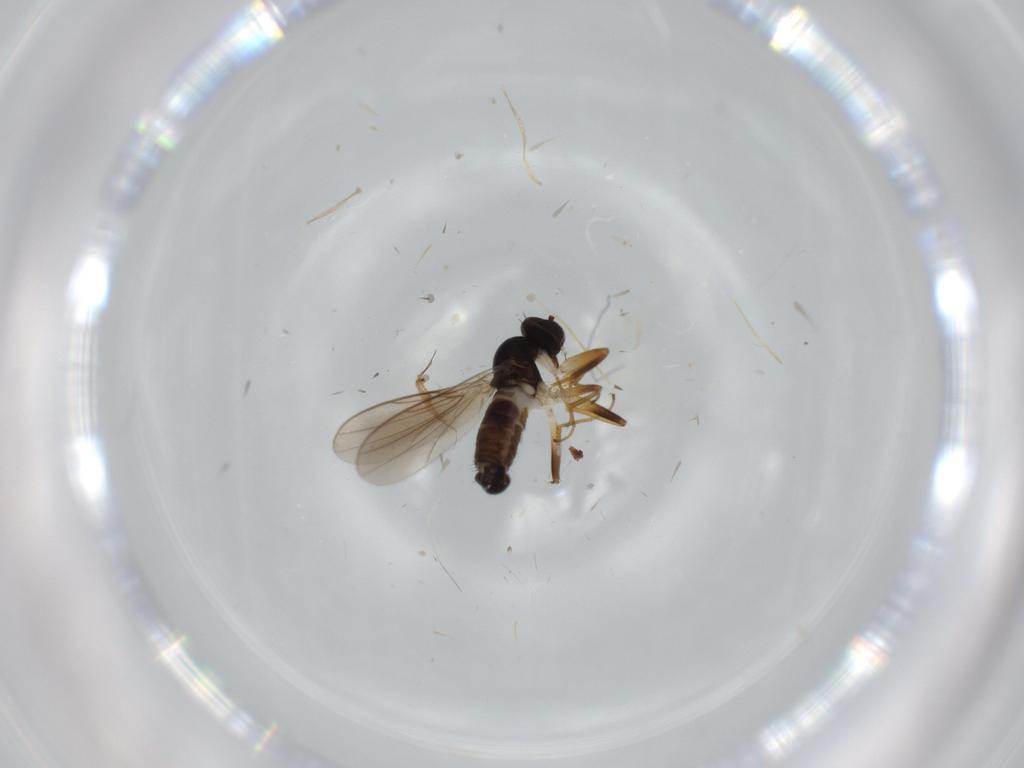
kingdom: Animalia
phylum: Arthropoda
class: Insecta
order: Diptera
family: Hybotidae
